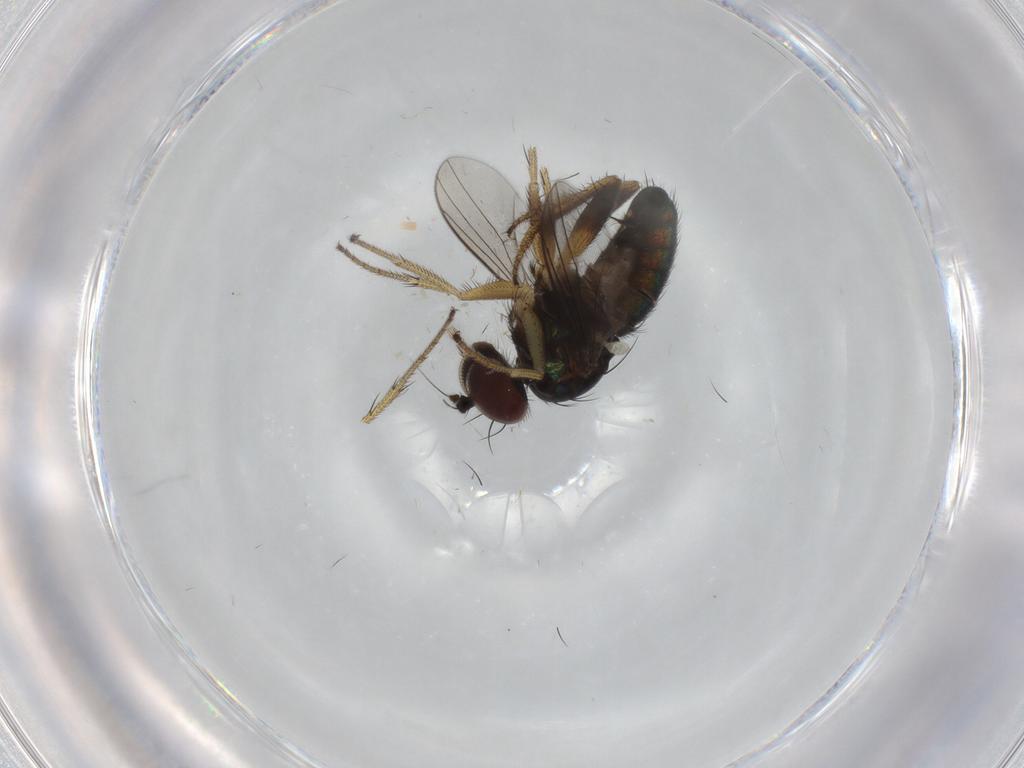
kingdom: Animalia
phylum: Arthropoda
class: Insecta
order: Diptera
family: Dolichopodidae
